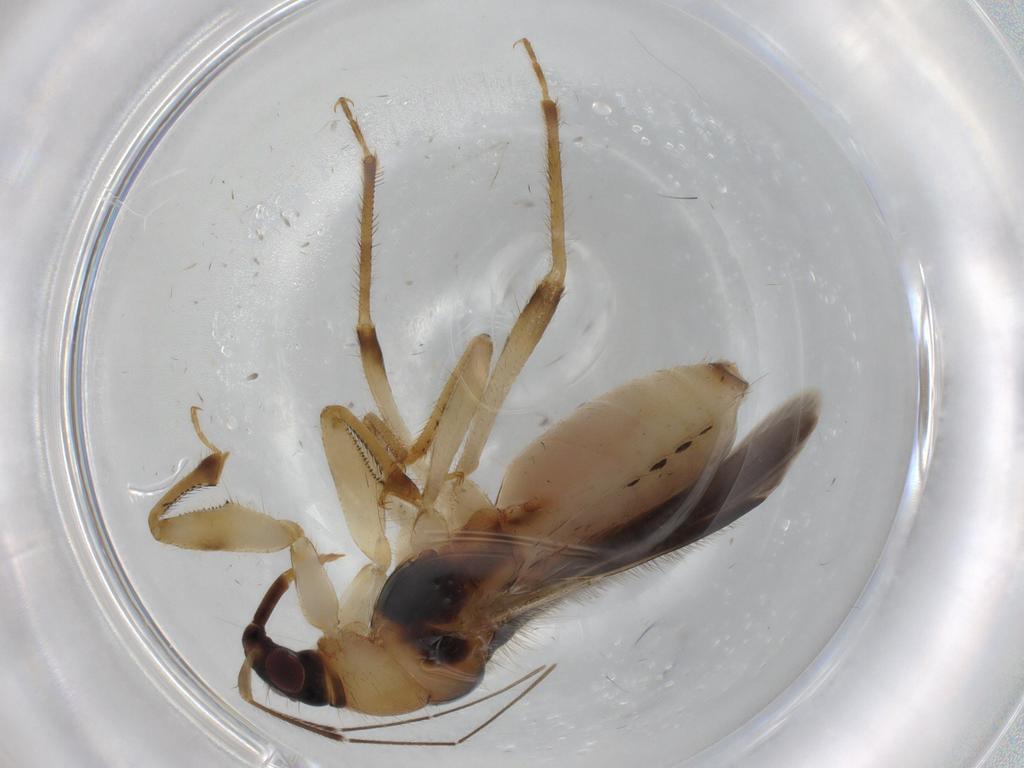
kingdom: Animalia
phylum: Arthropoda
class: Insecta
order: Hemiptera
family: Nabidae
